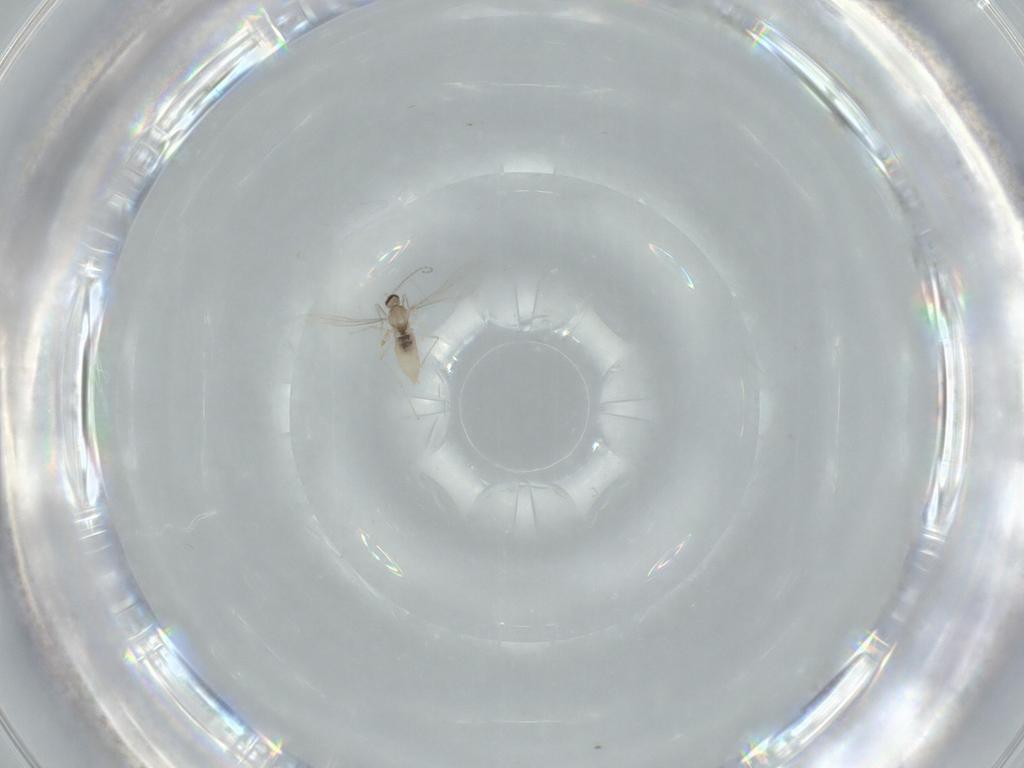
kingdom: Animalia
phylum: Arthropoda
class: Insecta
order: Diptera
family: Cecidomyiidae
